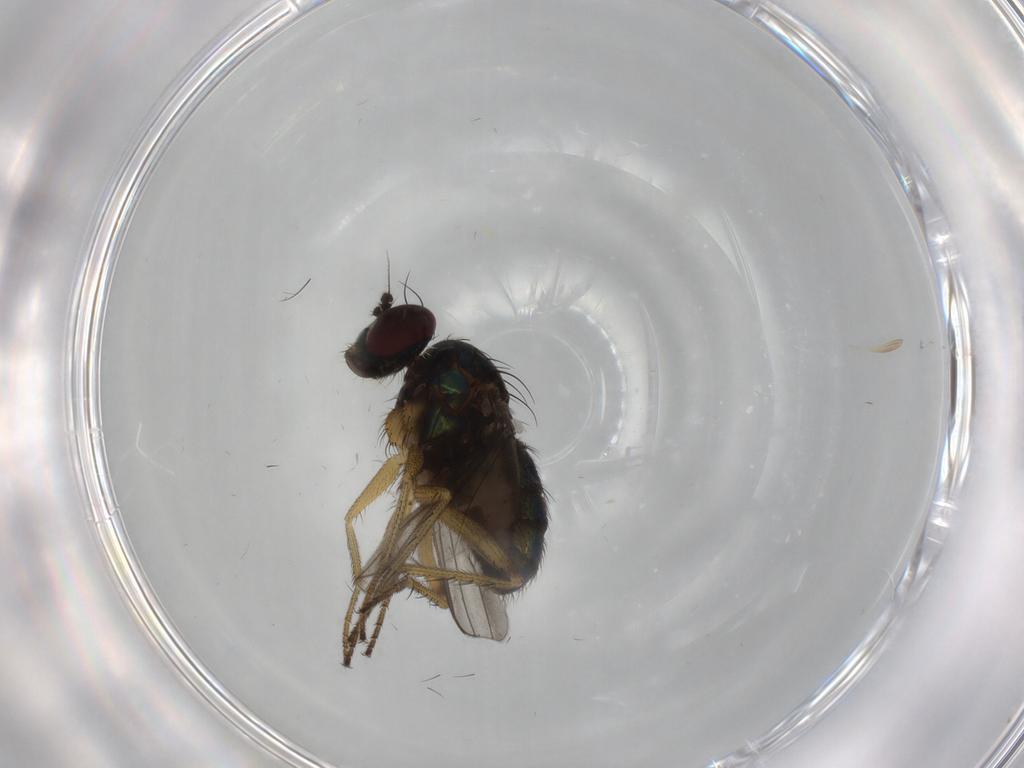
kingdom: Animalia
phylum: Arthropoda
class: Insecta
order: Diptera
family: Dolichopodidae
